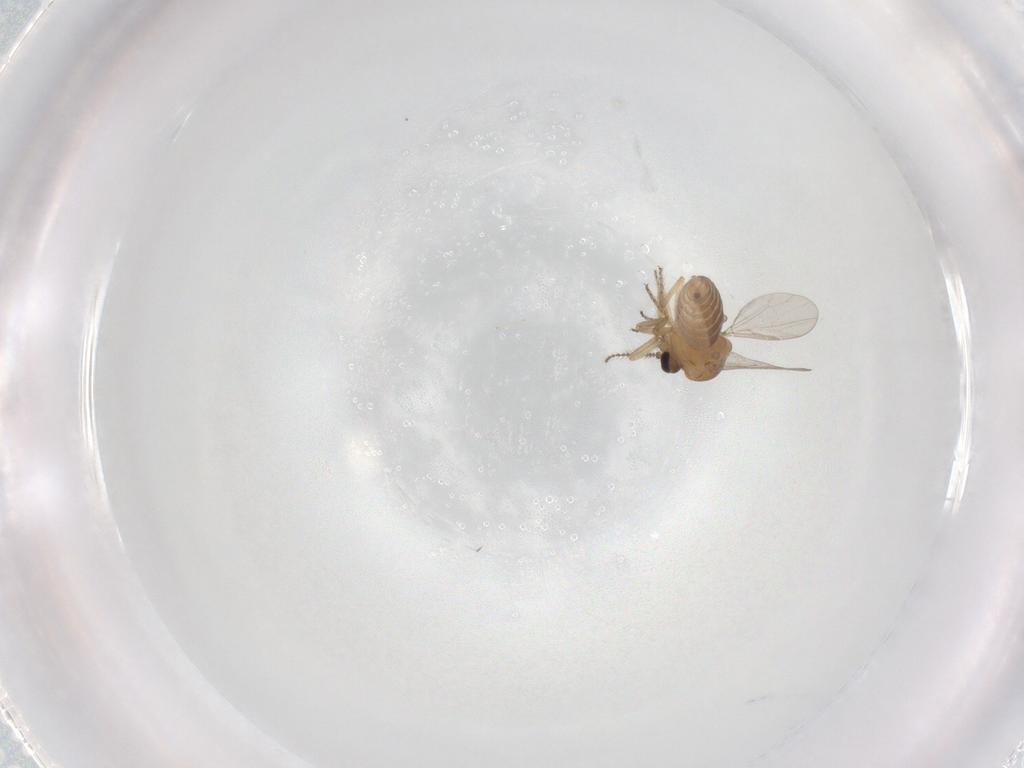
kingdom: Animalia
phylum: Arthropoda
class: Insecta
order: Diptera
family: Ceratopogonidae
